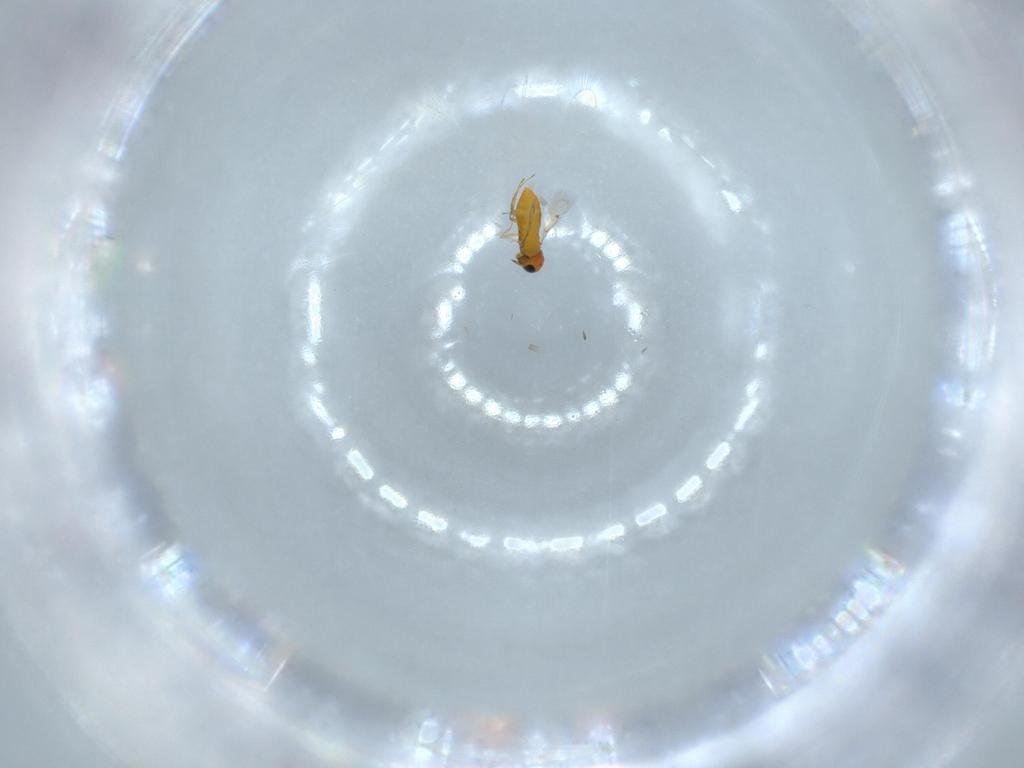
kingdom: Animalia
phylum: Arthropoda
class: Insecta
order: Hymenoptera
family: Trichogrammatidae
